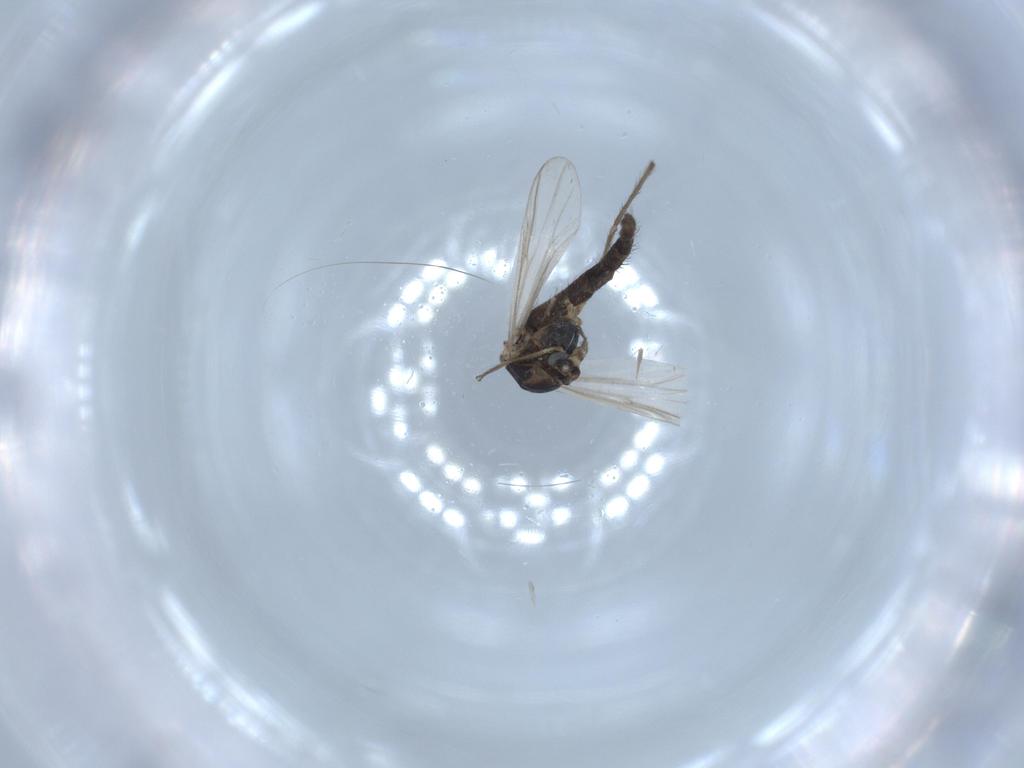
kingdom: Animalia
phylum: Arthropoda
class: Insecta
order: Diptera
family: Chironomidae
